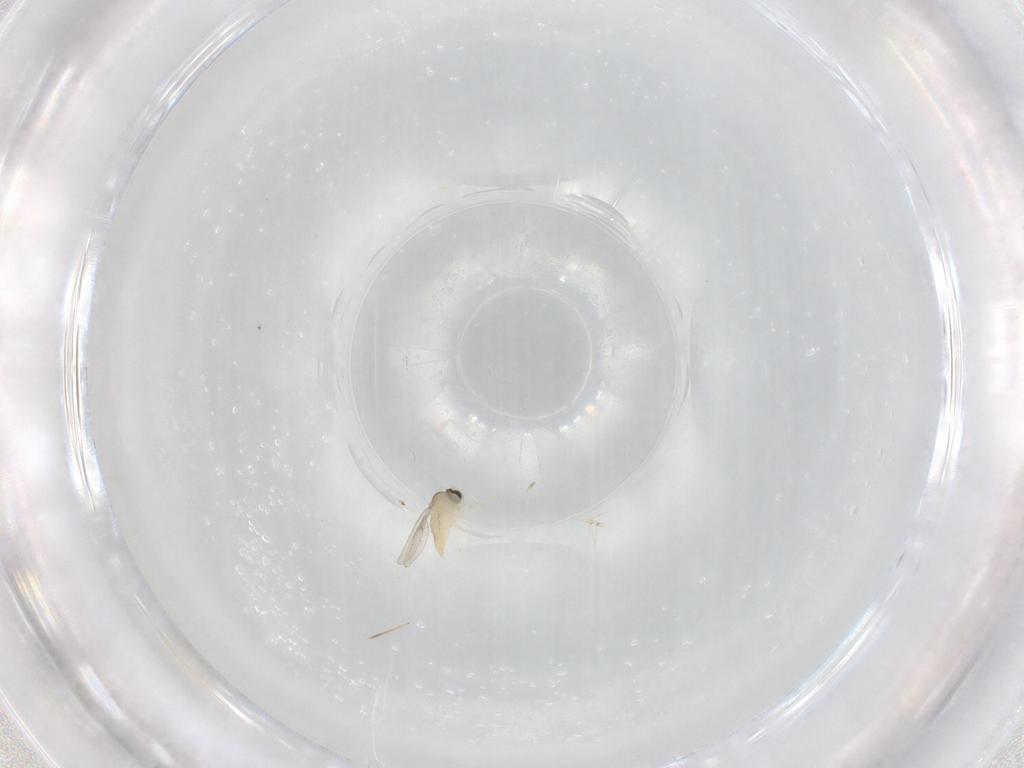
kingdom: Animalia
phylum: Arthropoda
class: Insecta
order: Diptera
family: Cecidomyiidae
